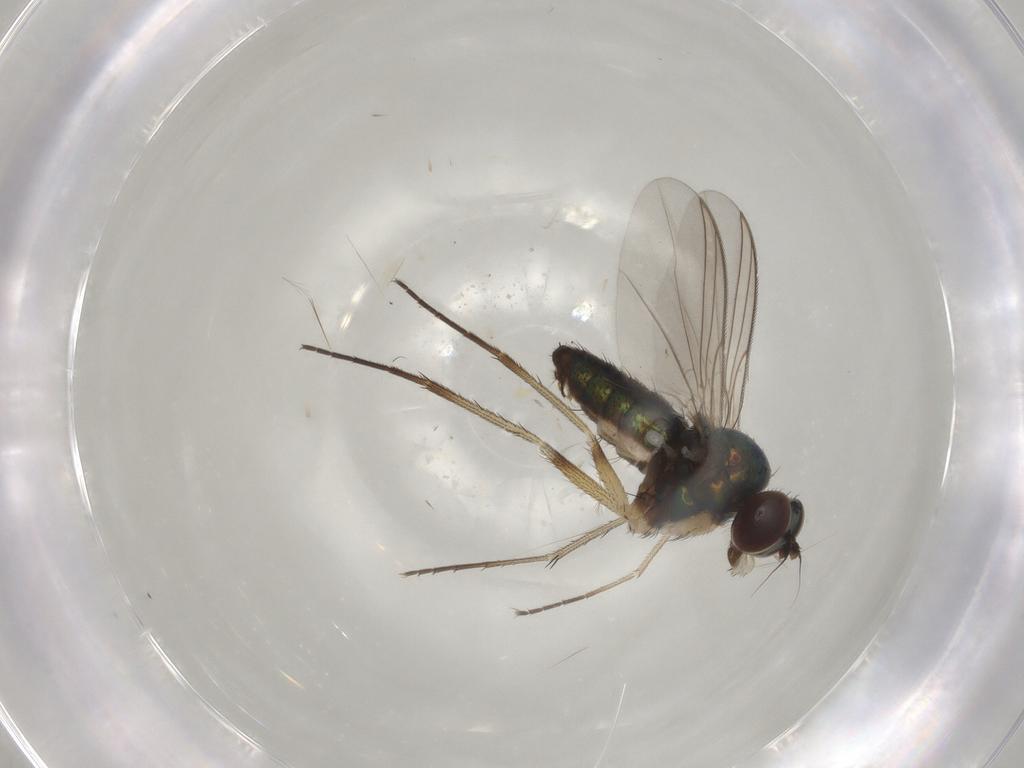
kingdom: Animalia
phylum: Arthropoda
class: Insecta
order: Diptera
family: Dolichopodidae
